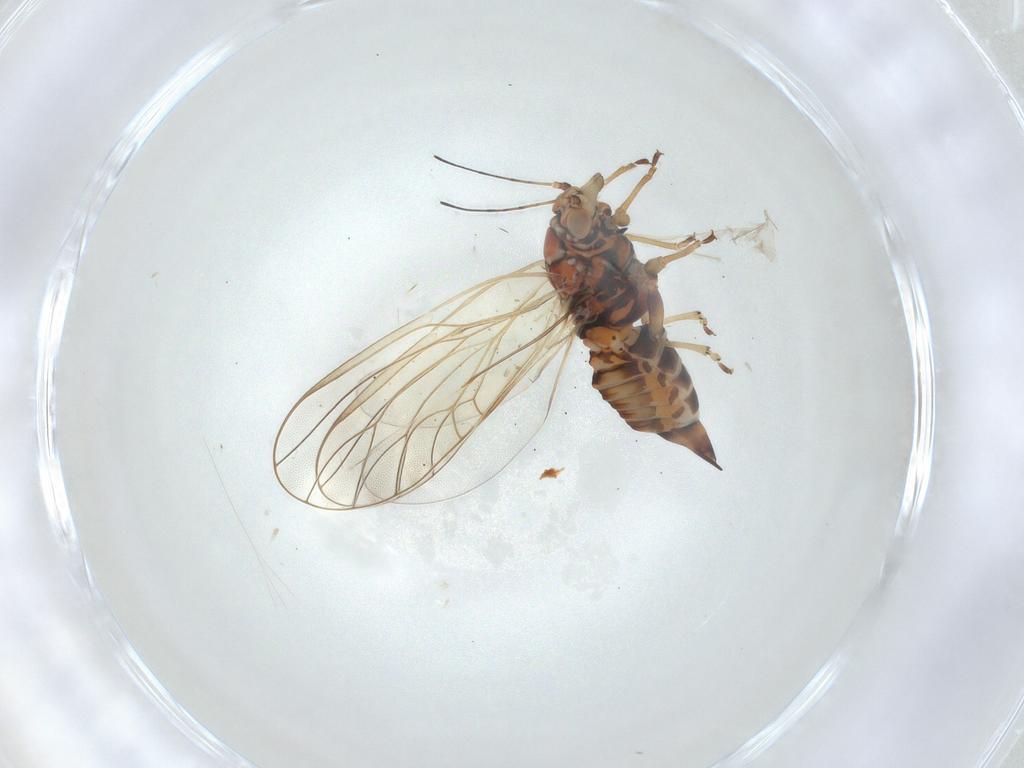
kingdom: Animalia
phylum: Arthropoda
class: Insecta
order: Hemiptera
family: Psyllidae
